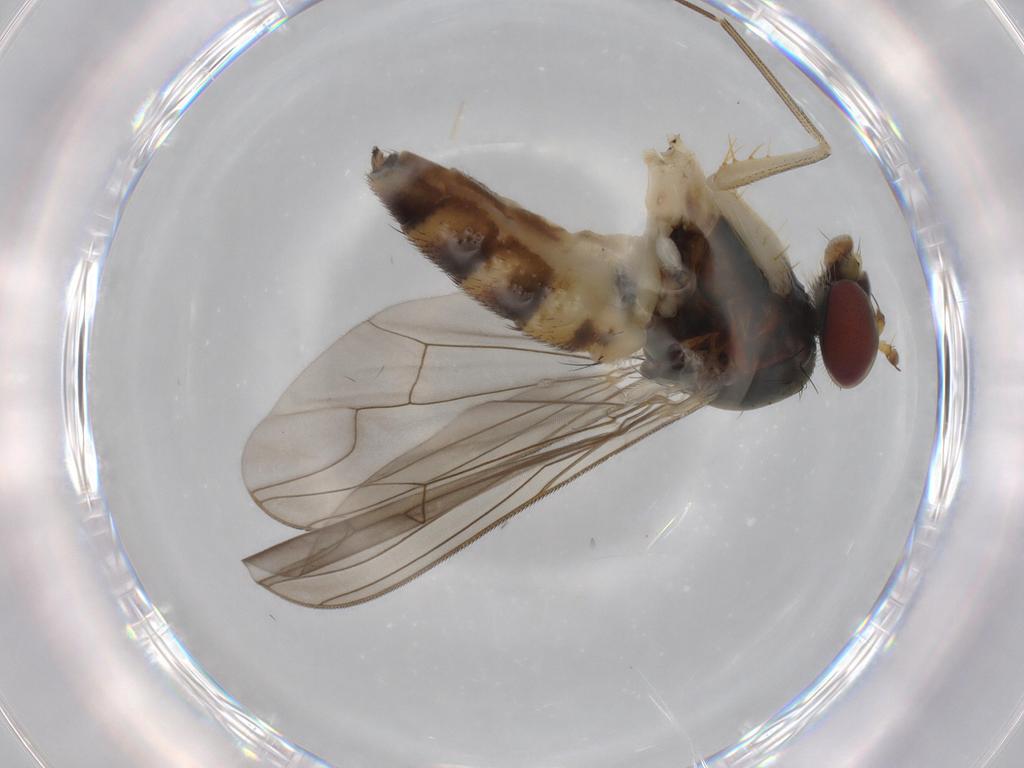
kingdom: Animalia
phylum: Arthropoda
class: Insecta
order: Diptera
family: Dolichopodidae
